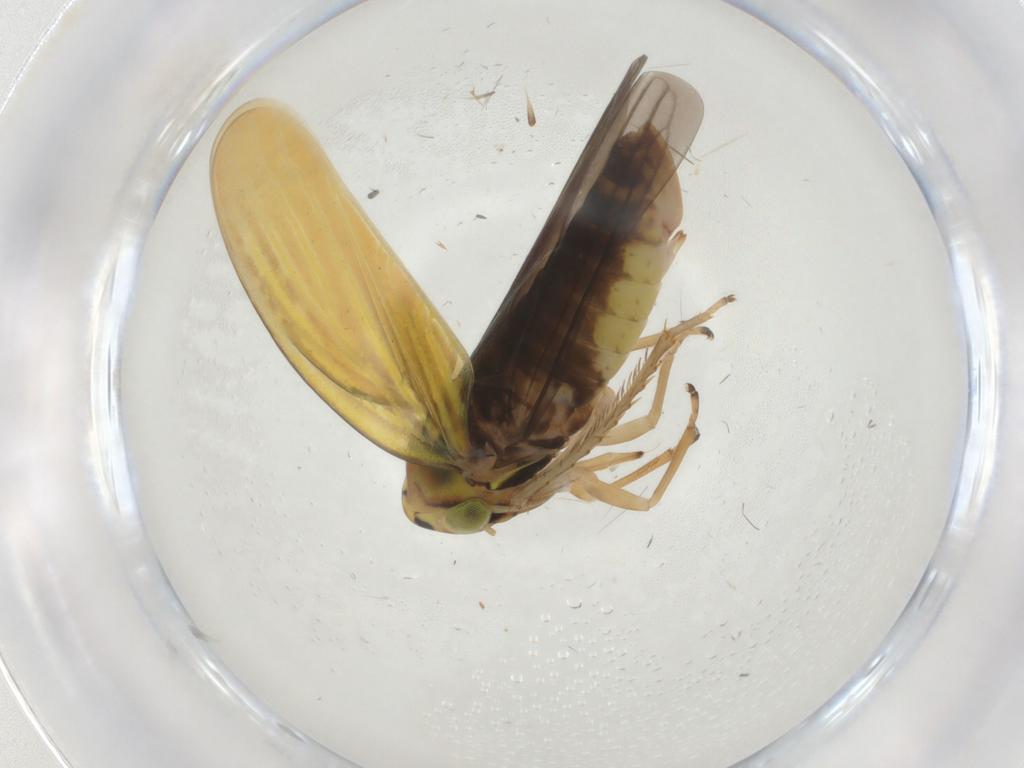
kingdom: Animalia
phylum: Arthropoda
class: Insecta
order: Hemiptera
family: Cicadellidae
